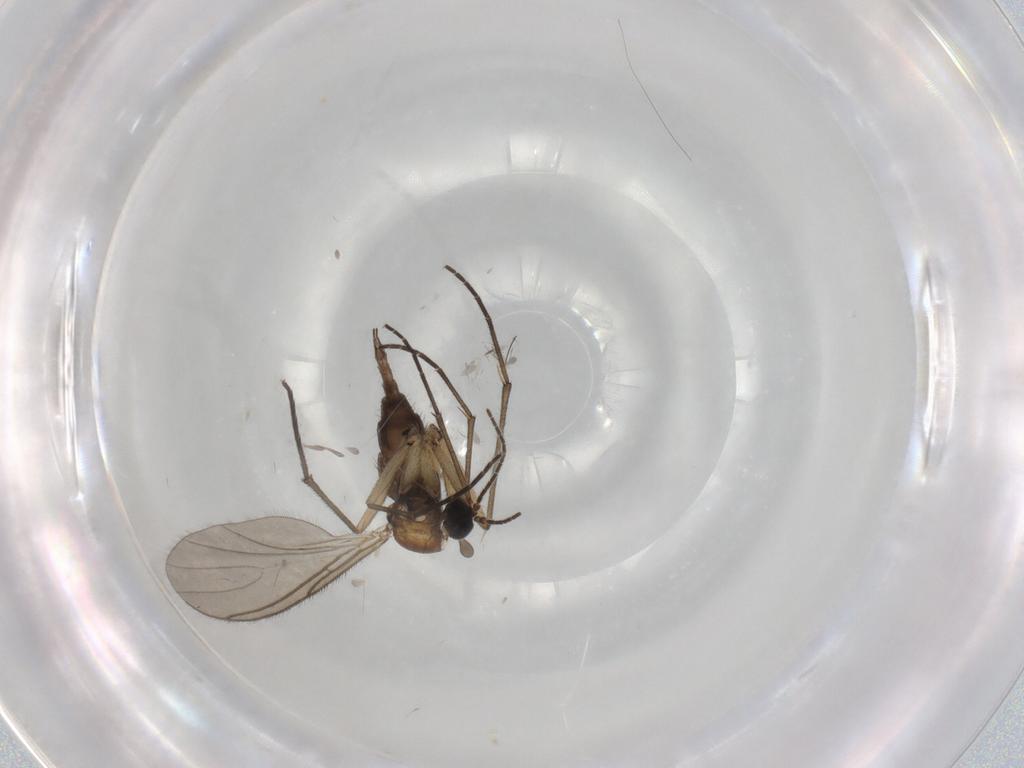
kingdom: Animalia
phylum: Arthropoda
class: Insecta
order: Diptera
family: Sciaridae
